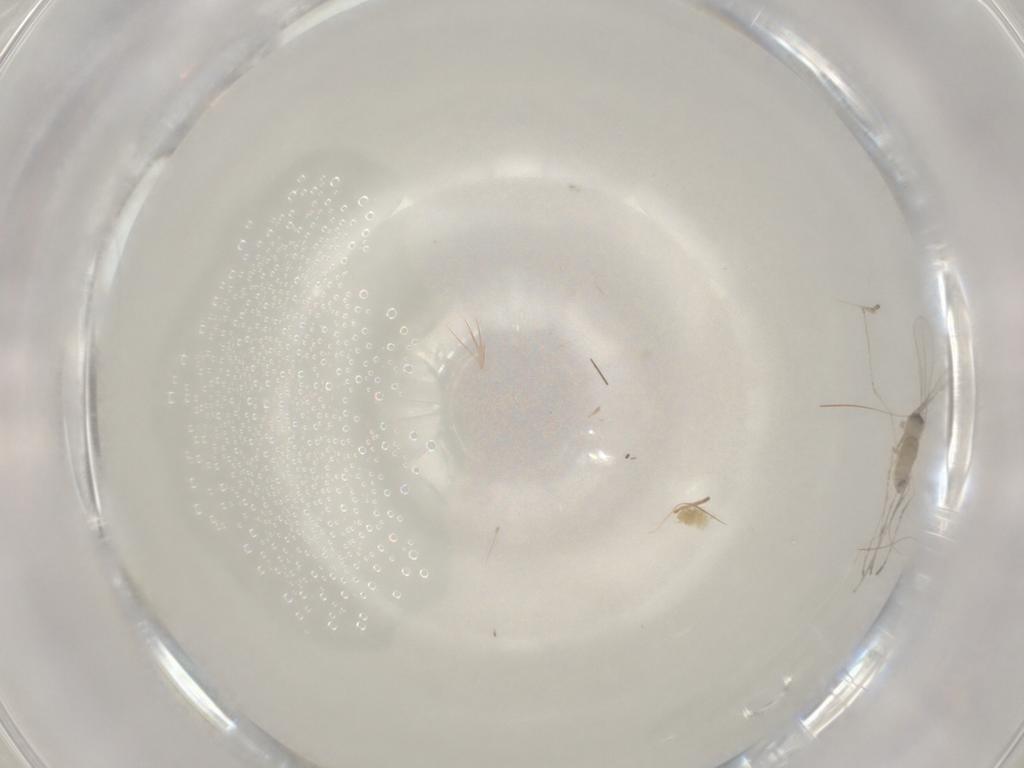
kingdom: Animalia
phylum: Arthropoda
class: Insecta
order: Diptera
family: Cecidomyiidae
